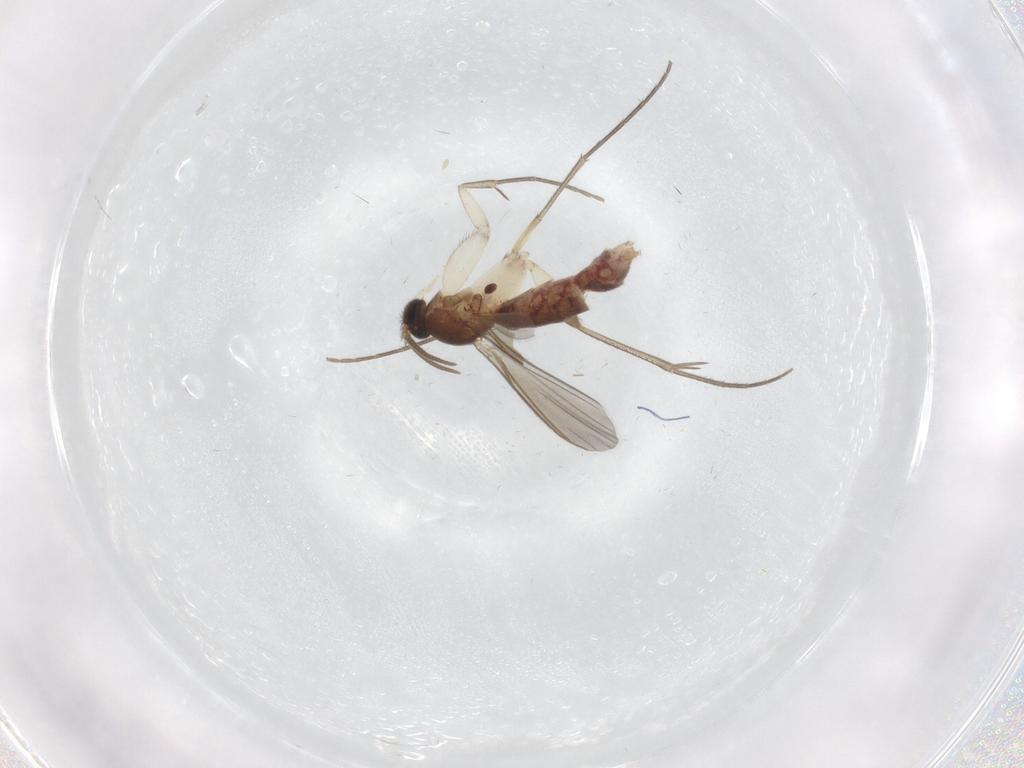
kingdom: Animalia
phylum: Arthropoda
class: Insecta
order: Diptera
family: Mycetophilidae
